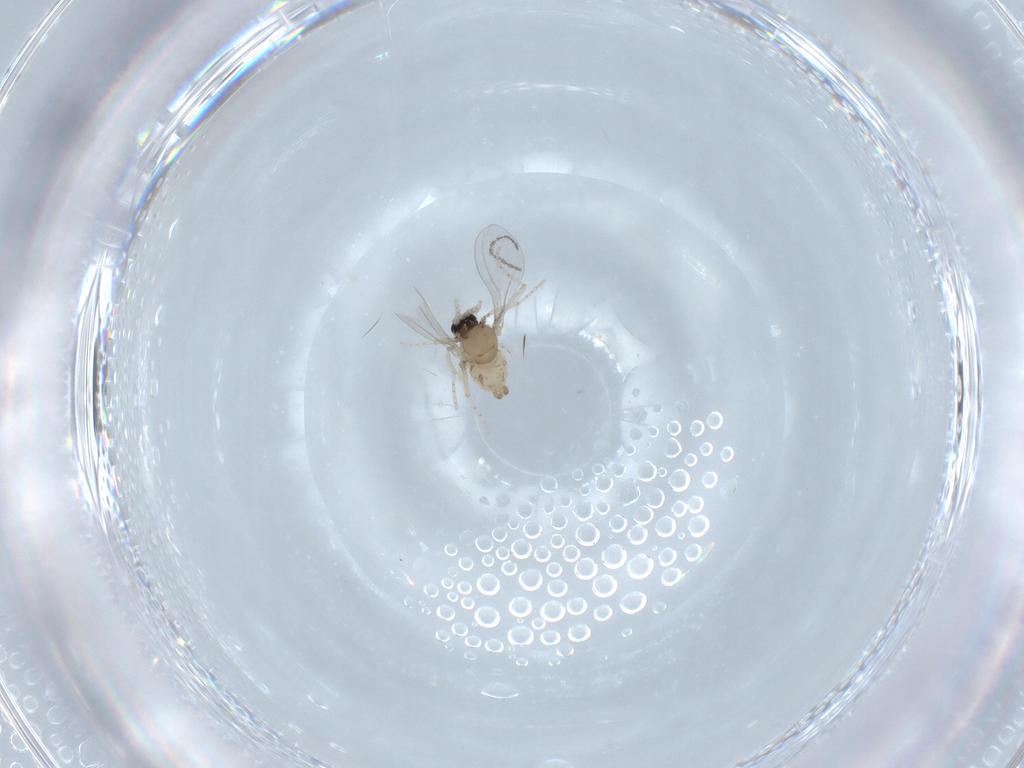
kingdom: Animalia
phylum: Arthropoda
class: Insecta
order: Diptera
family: Cecidomyiidae
